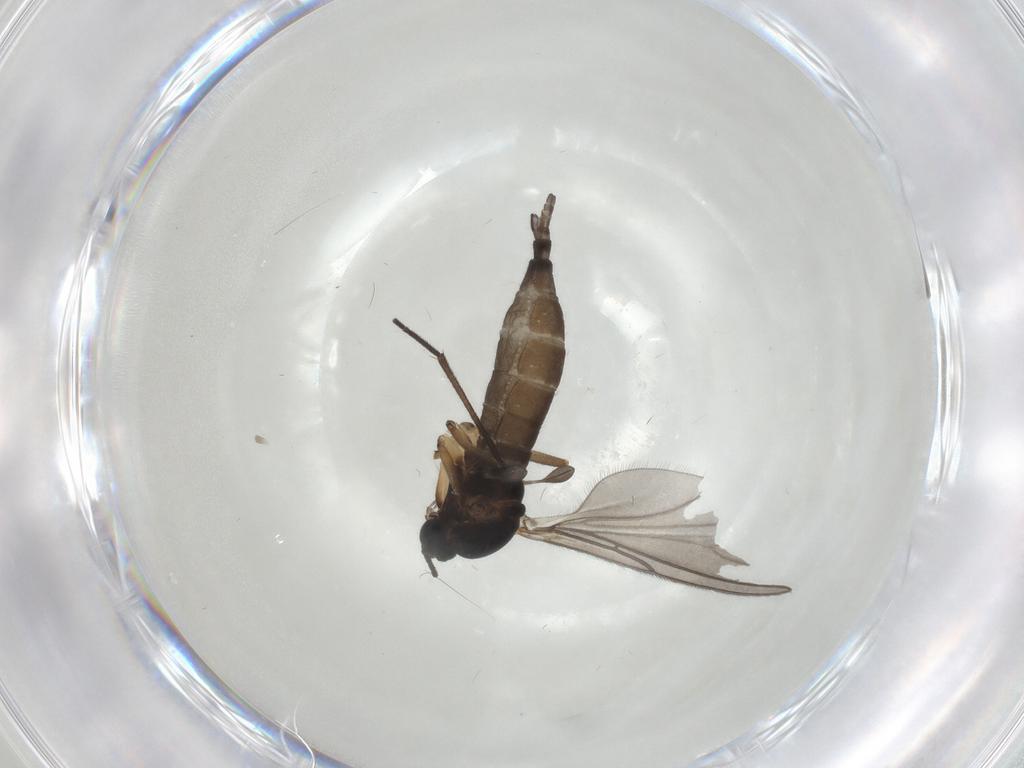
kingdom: Animalia
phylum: Arthropoda
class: Insecta
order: Diptera
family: Sciaridae
